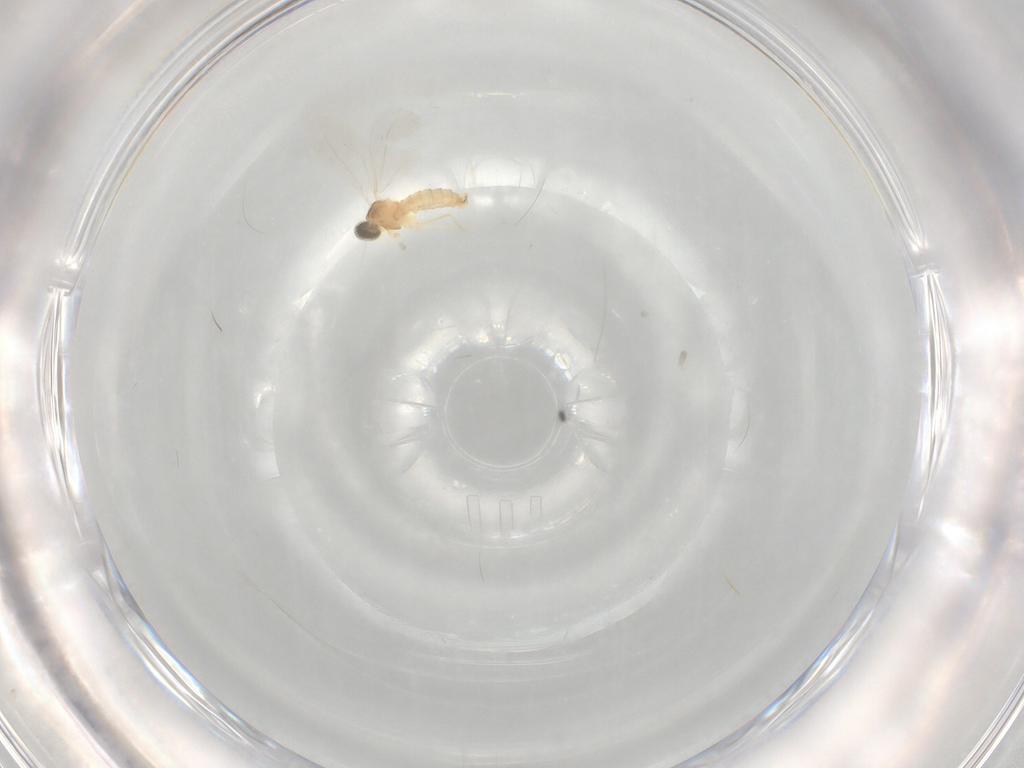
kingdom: Animalia
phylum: Arthropoda
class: Insecta
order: Diptera
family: Cecidomyiidae
